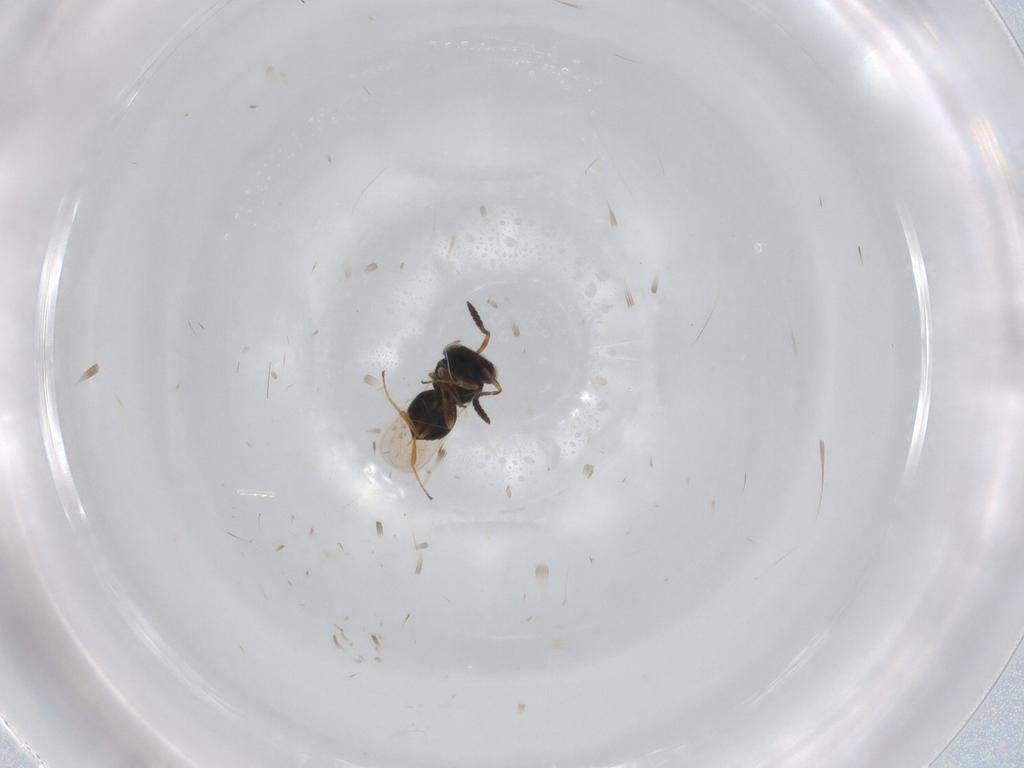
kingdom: Animalia
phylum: Arthropoda
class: Insecta
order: Hymenoptera
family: Scelionidae
